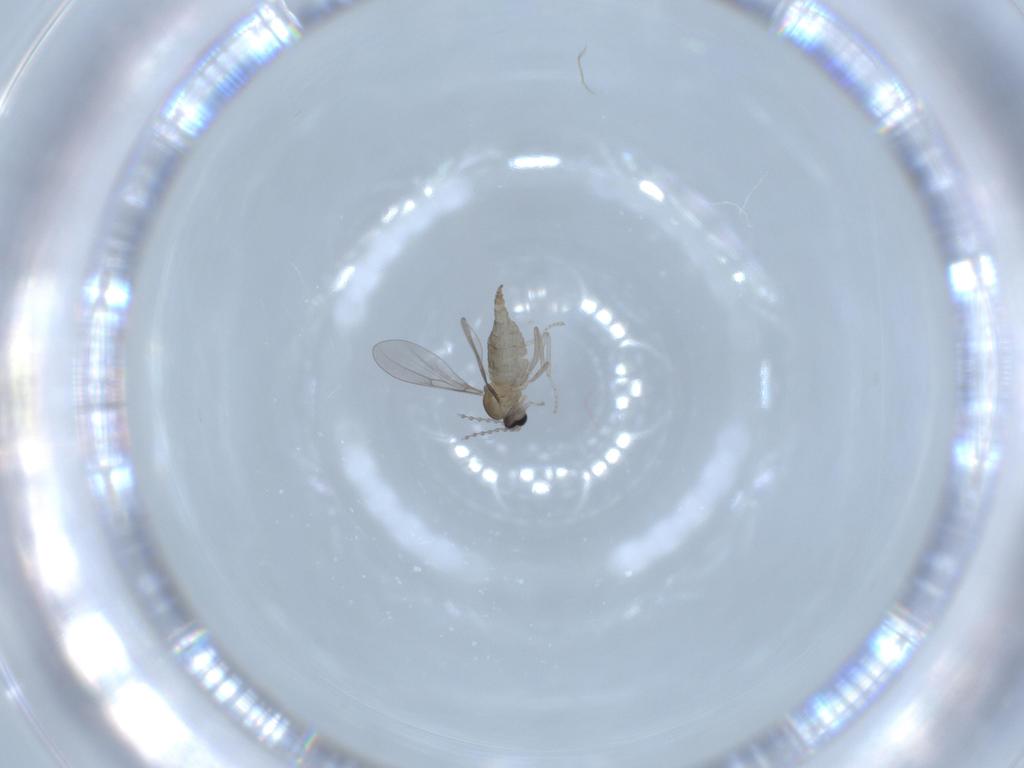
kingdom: Animalia
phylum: Arthropoda
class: Insecta
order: Diptera
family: Cecidomyiidae
